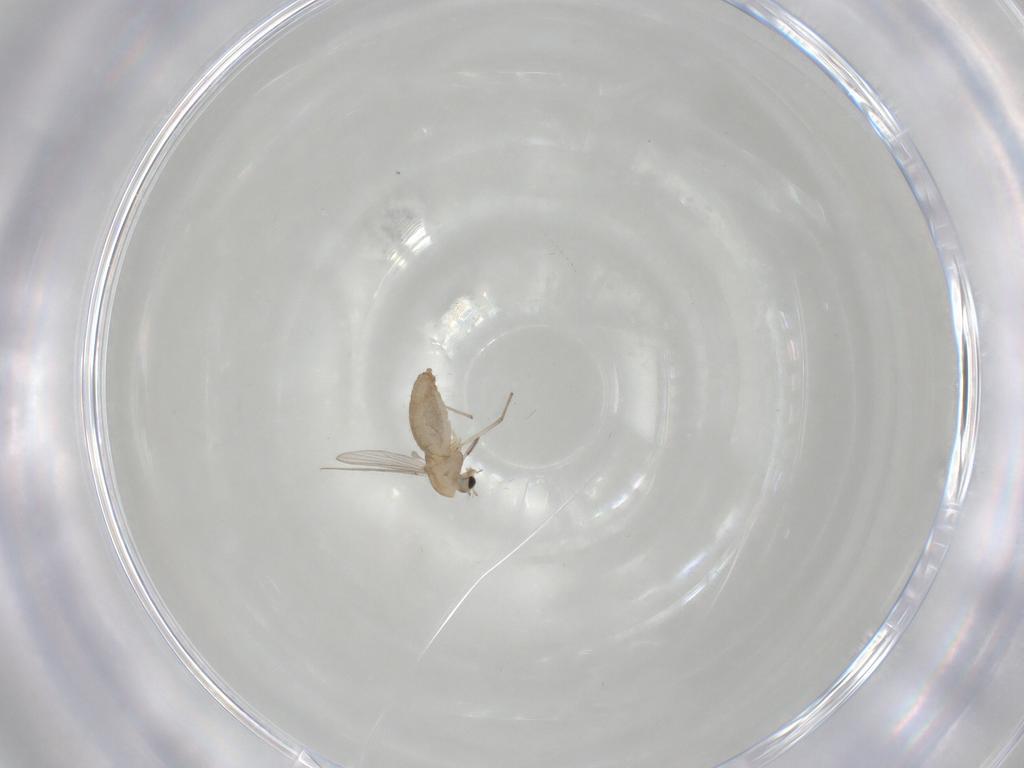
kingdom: Animalia
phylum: Arthropoda
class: Insecta
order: Diptera
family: Chironomidae
